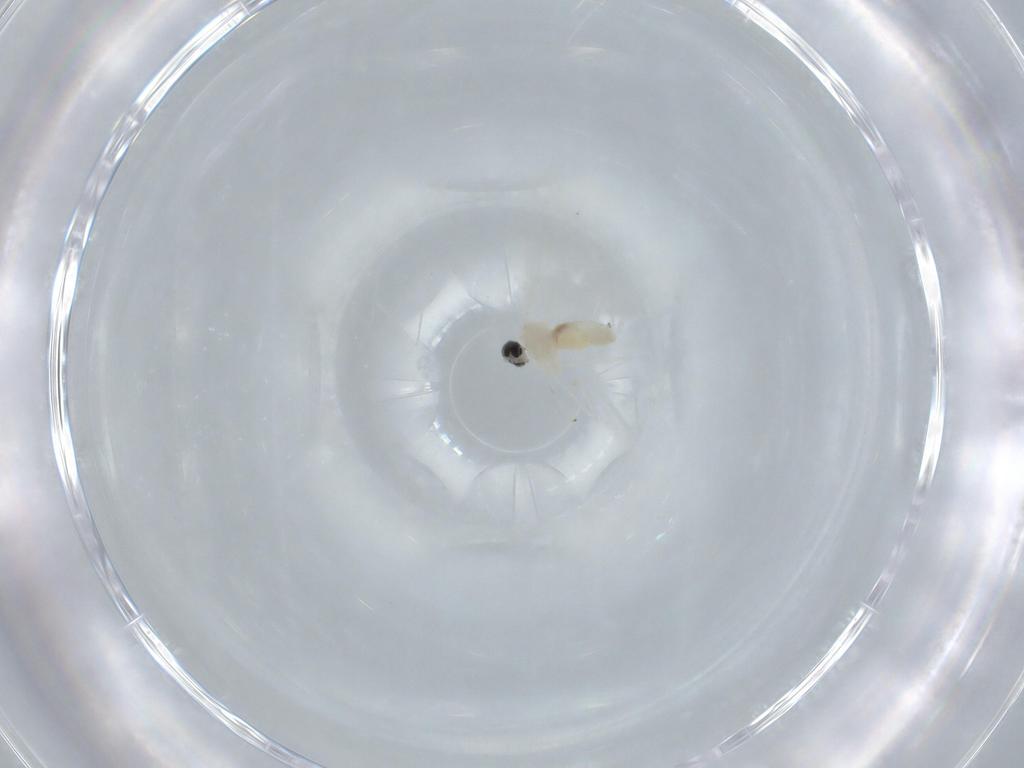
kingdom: Animalia
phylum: Arthropoda
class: Insecta
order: Diptera
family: Cecidomyiidae
